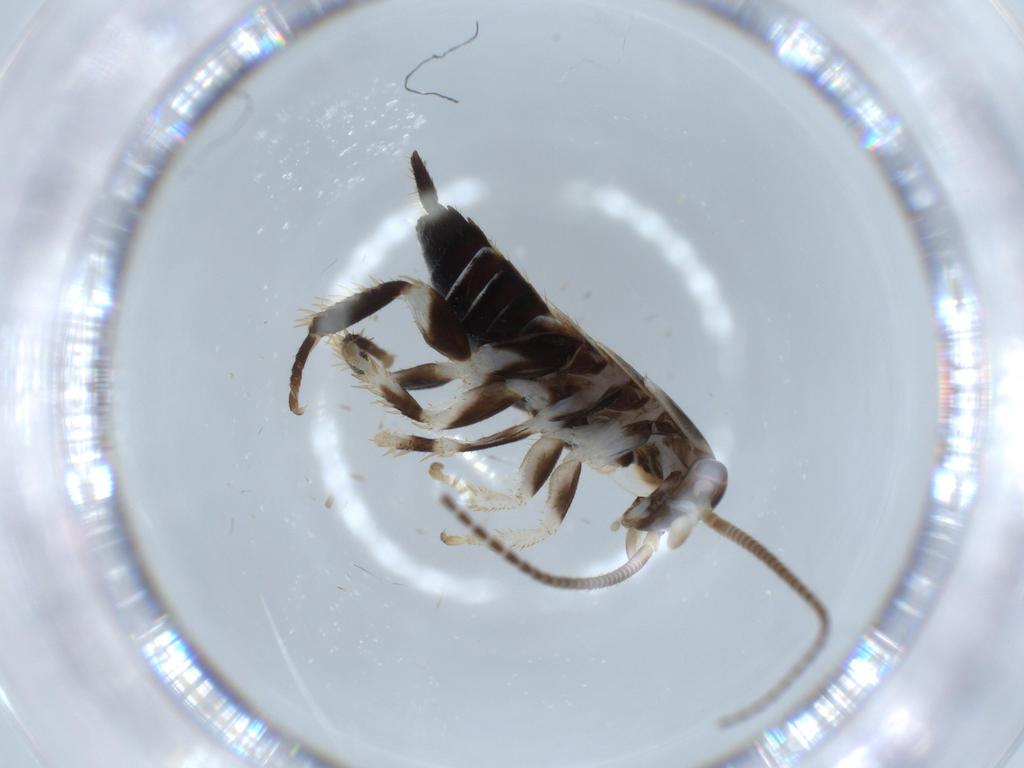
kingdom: Animalia
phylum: Arthropoda
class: Insecta
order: Blattodea
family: Ectobiidae
